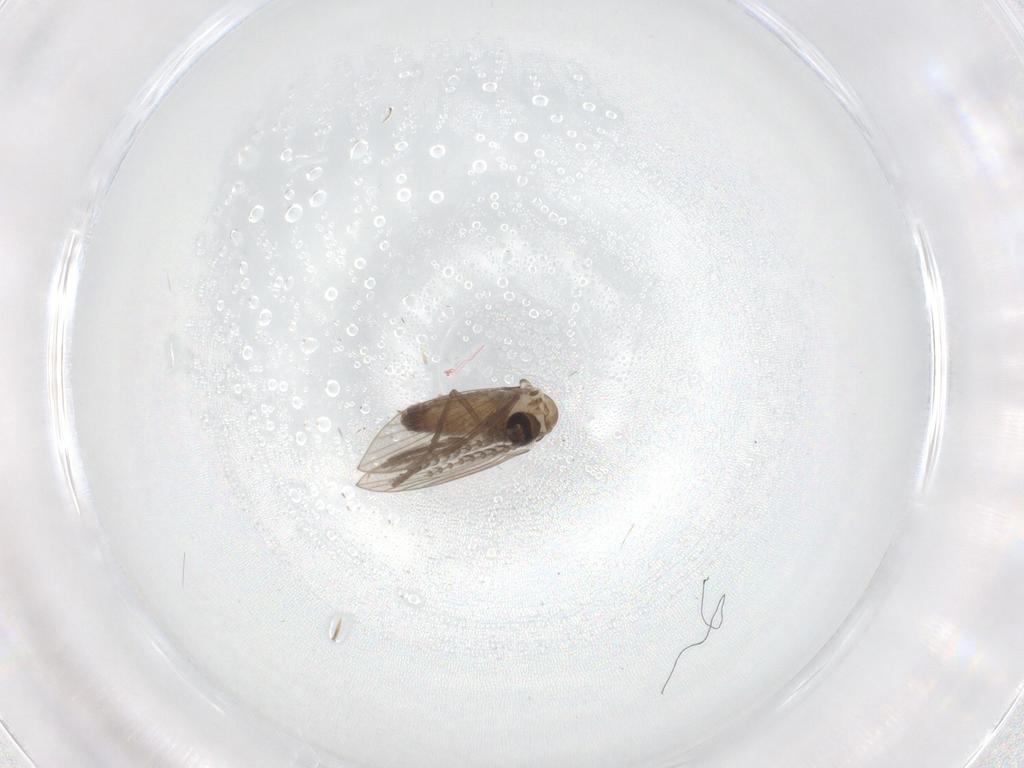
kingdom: Animalia
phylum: Arthropoda
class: Insecta
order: Diptera
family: Psychodidae
